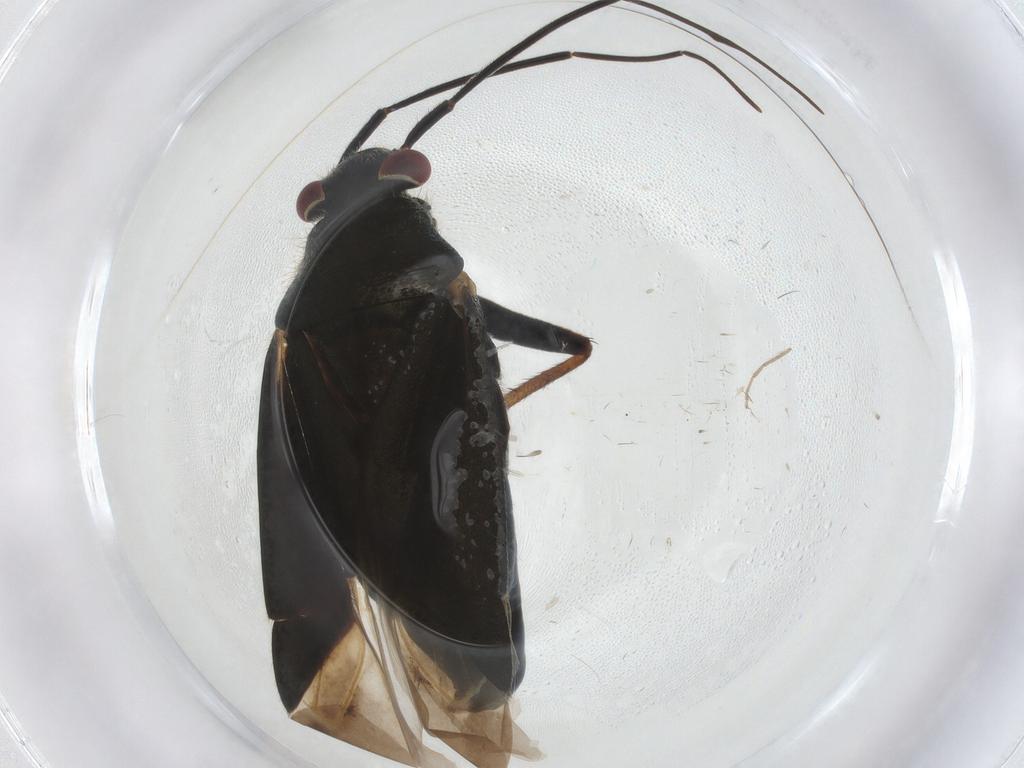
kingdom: Animalia
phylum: Arthropoda
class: Insecta
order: Hemiptera
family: Miridae
